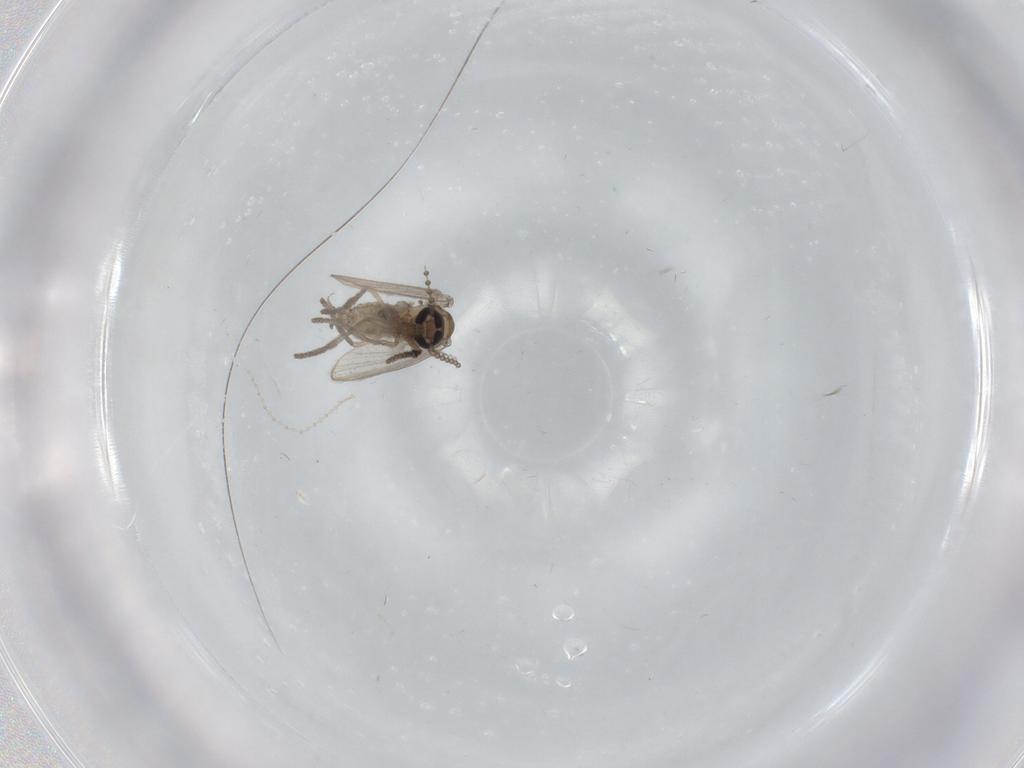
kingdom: Animalia
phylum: Arthropoda
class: Insecta
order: Diptera
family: Psychodidae
